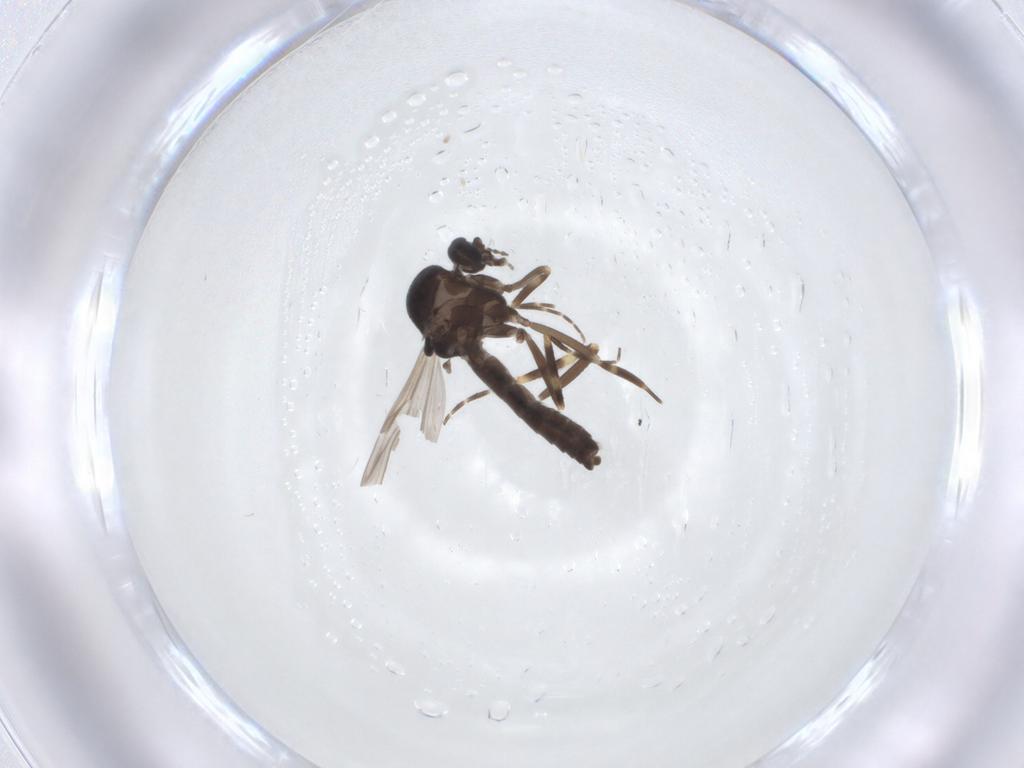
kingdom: Animalia
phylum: Arthropoda
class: Insecta
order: Diptera
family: Ceratopogonidae
